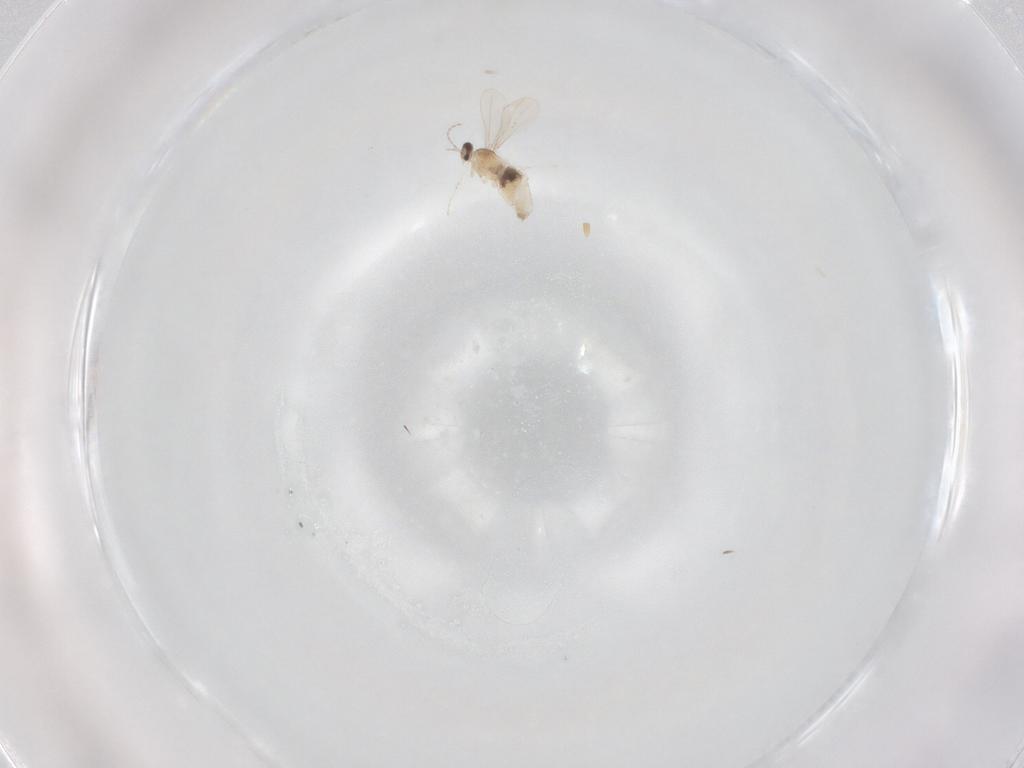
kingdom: Animalia
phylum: Arthropoda
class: Insecta
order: Diptera
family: Cecidomyiidae
